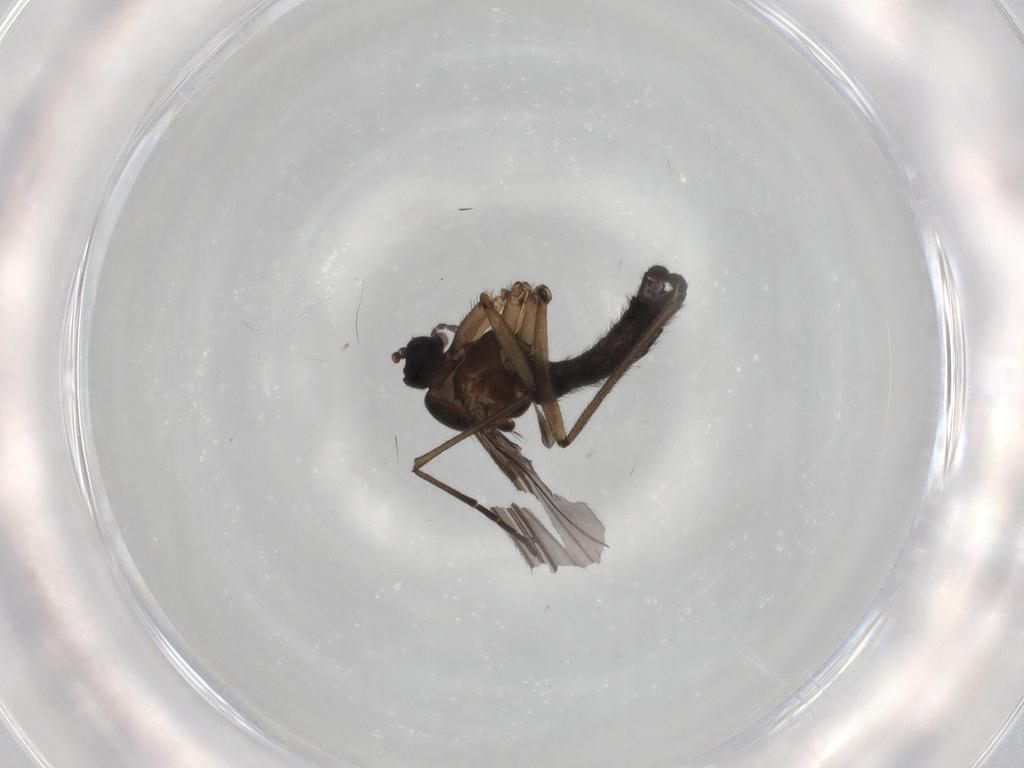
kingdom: Animalia
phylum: Arthropoda
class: Insecta
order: Diptera
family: Sciaridae
